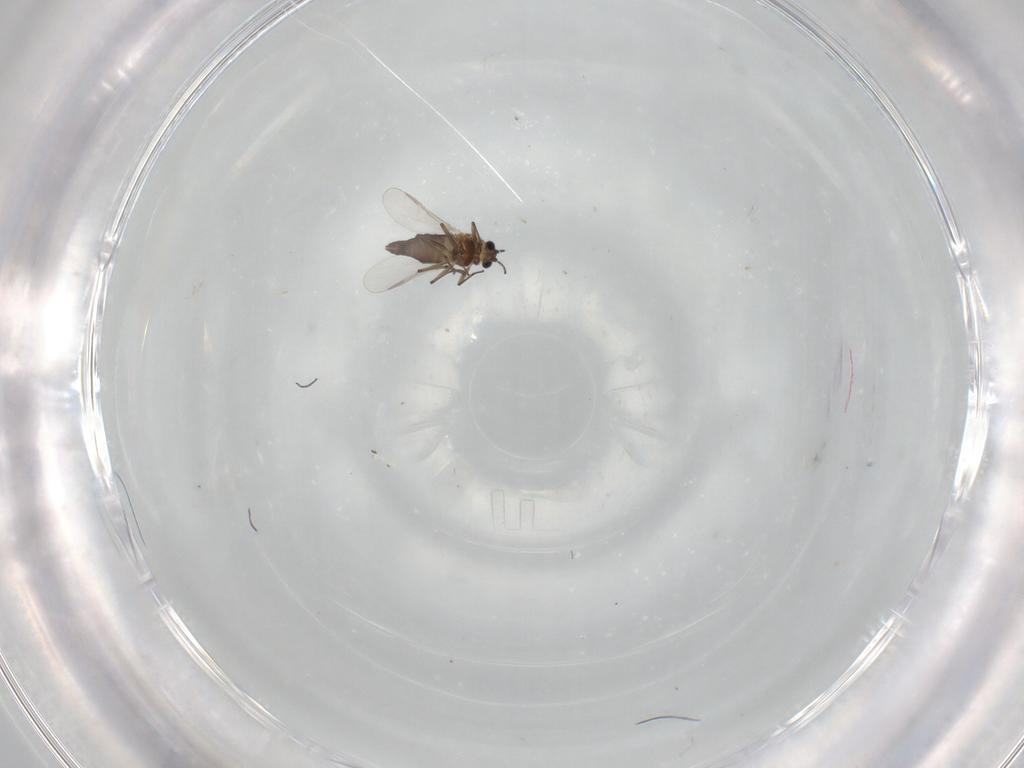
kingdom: Animalia
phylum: Arthropoda
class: Insecta
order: Diptera
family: Chironomidae
